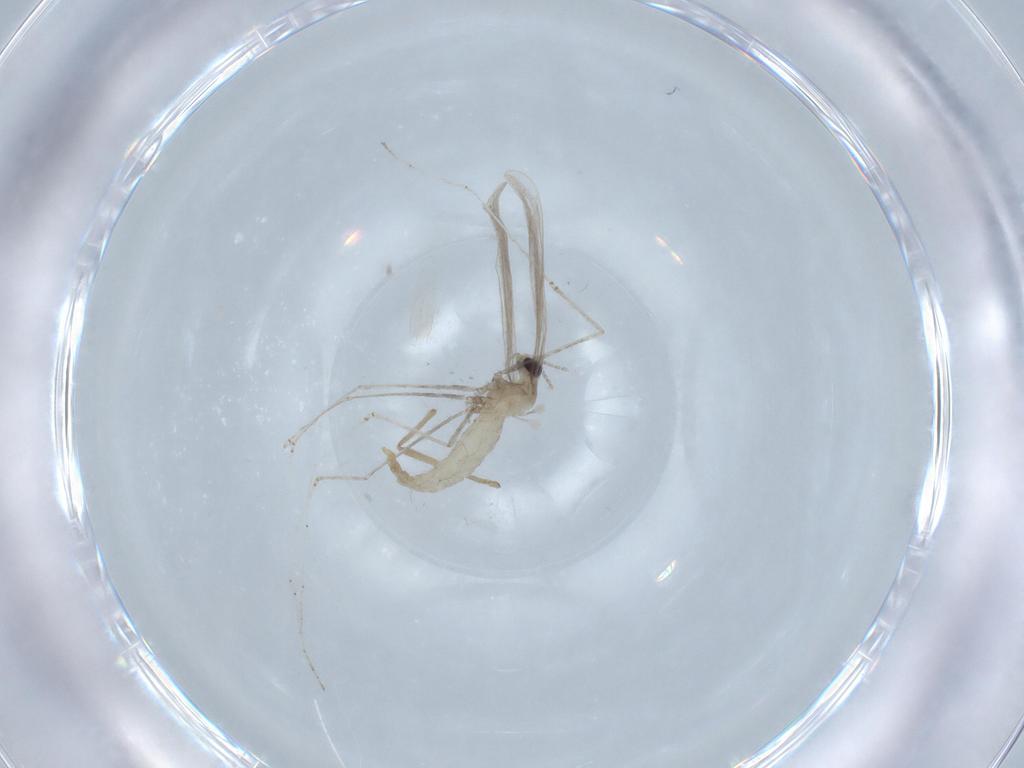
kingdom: Animalia
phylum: Arthropoda
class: Insecta
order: Diptera
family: Cecidomyiidae
